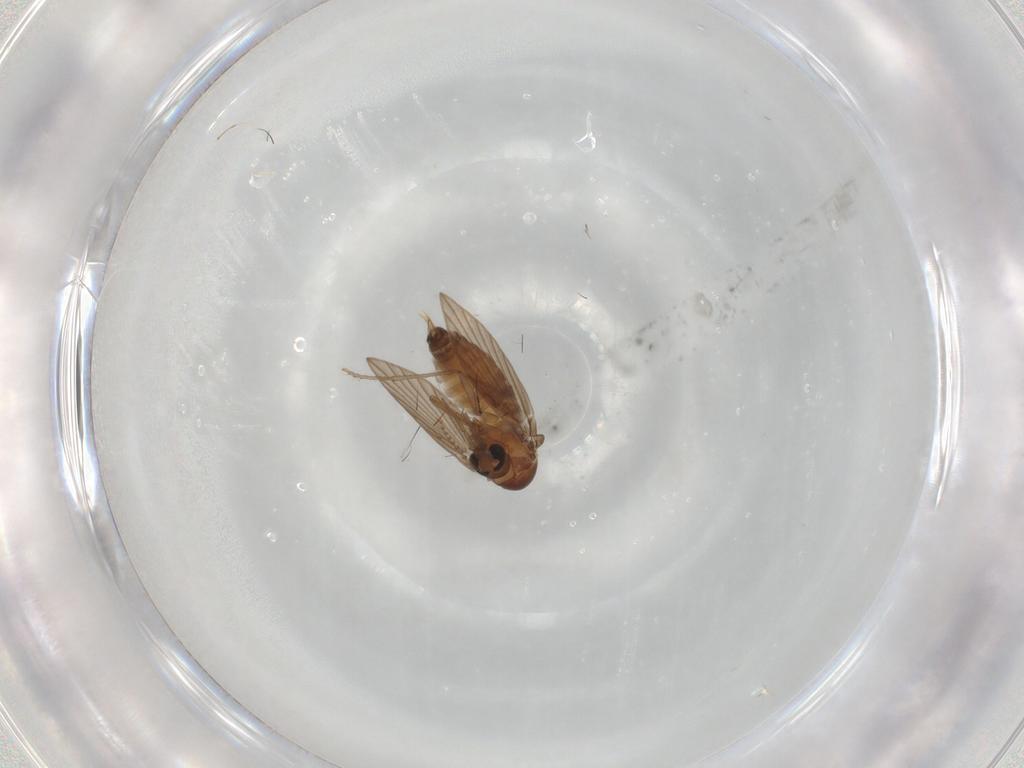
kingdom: Animalia
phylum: Arthropoda
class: Insecta
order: Diptera
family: Psychodidae
